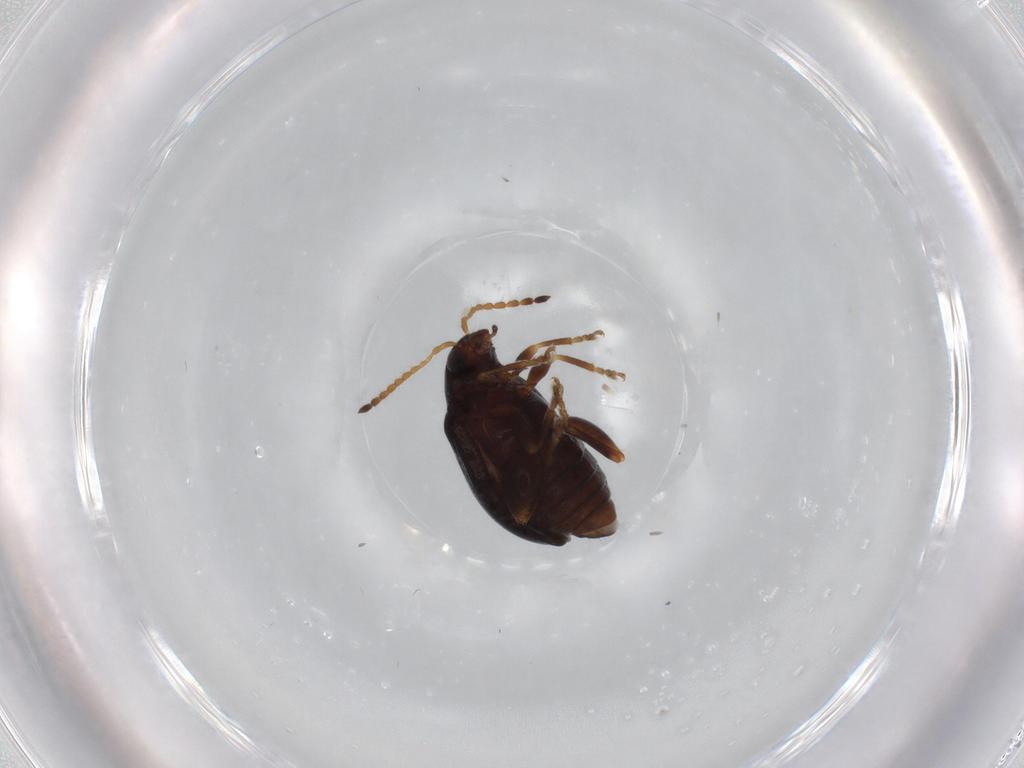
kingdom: Animalia
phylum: Arthropoda
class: Insecta
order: Coleoptera
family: Chrysomelidae
